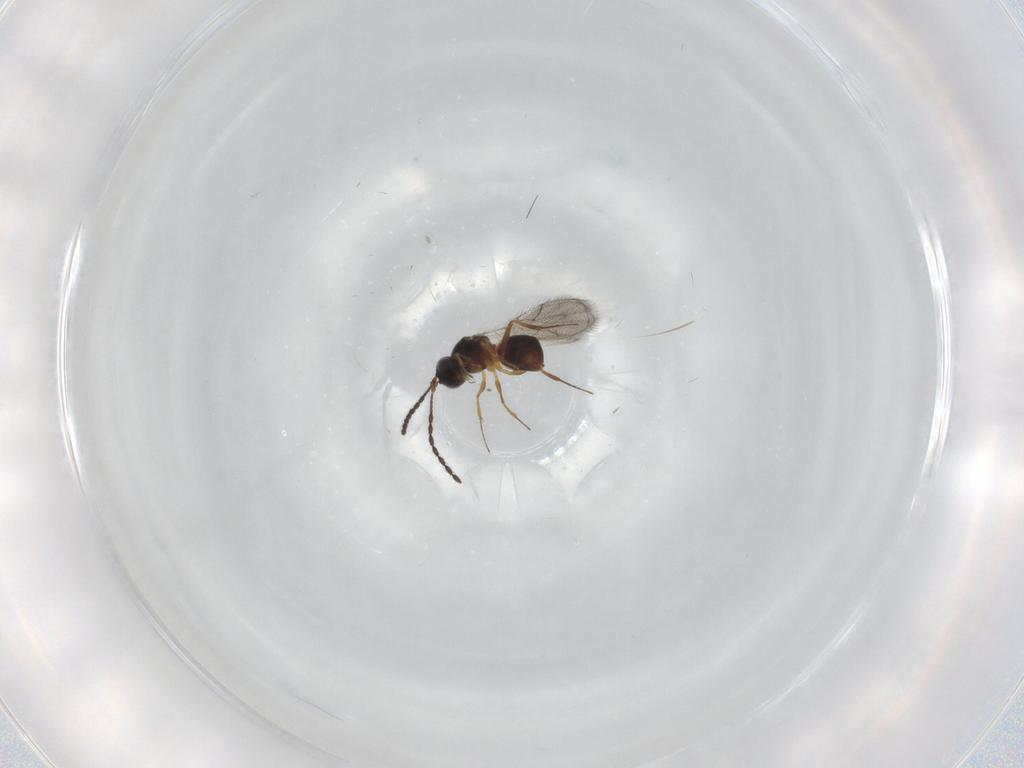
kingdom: Animalia
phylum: Arthropoda
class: Insecta
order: Hymenoptera
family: Figitidae
